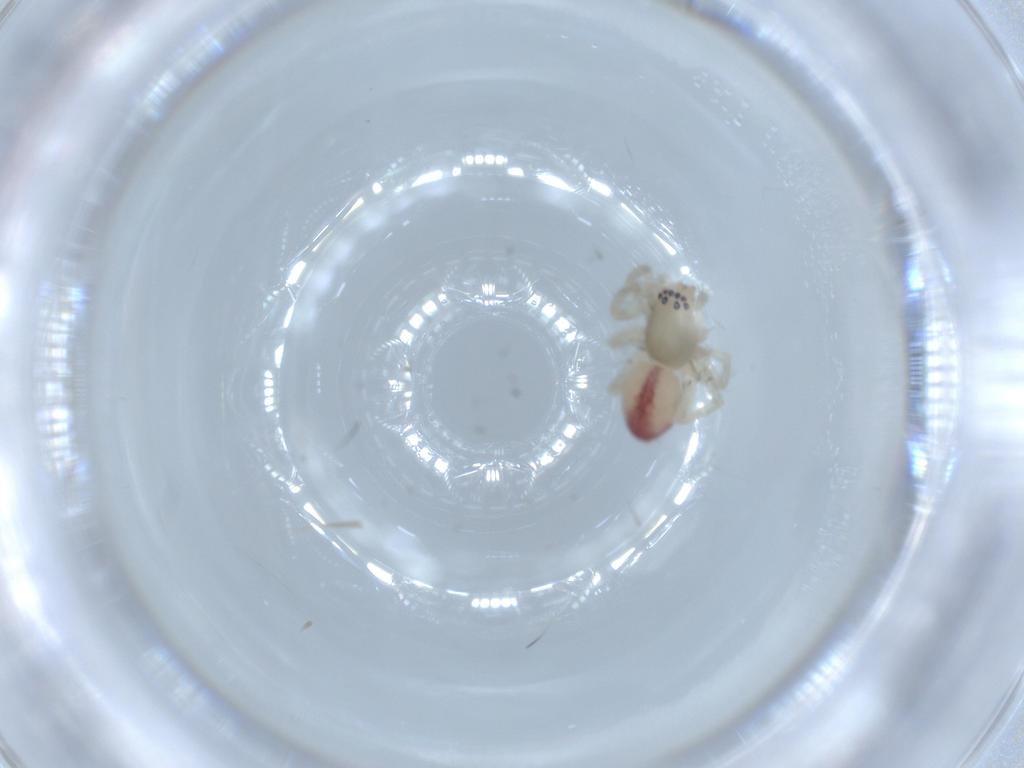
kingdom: Animalia
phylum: Arthropoda
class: Arachnida
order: Araneae
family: Clubionidae
